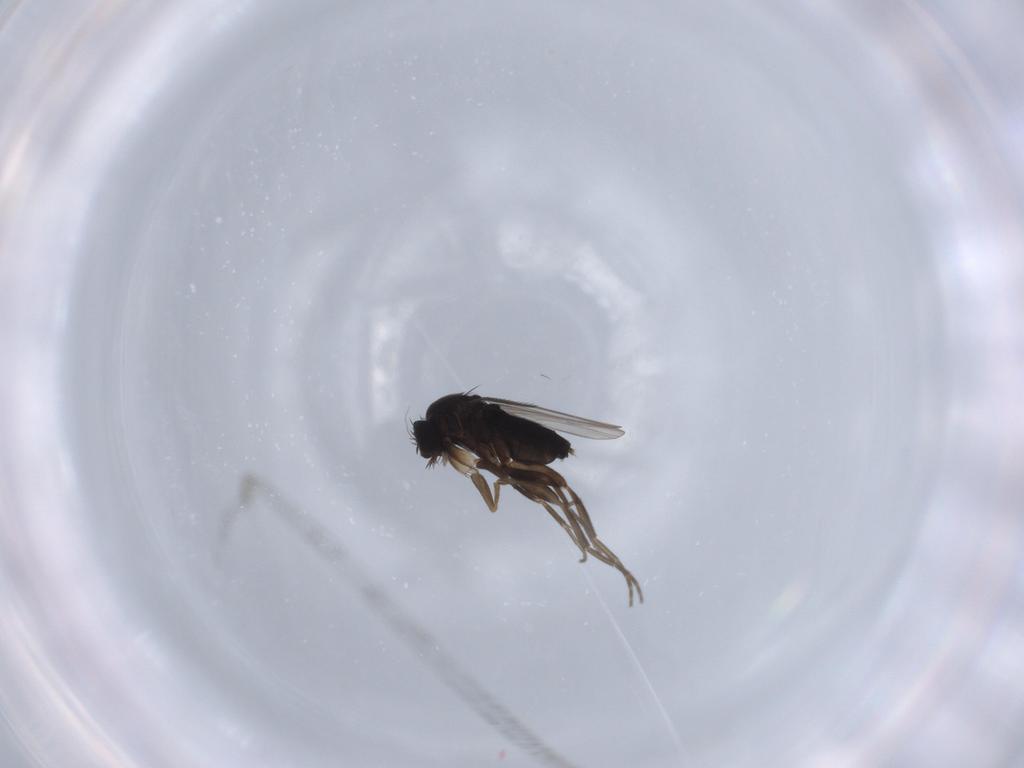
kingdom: Animalia
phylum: Arthropoda
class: Insecta
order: Diptera
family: Phoridae
